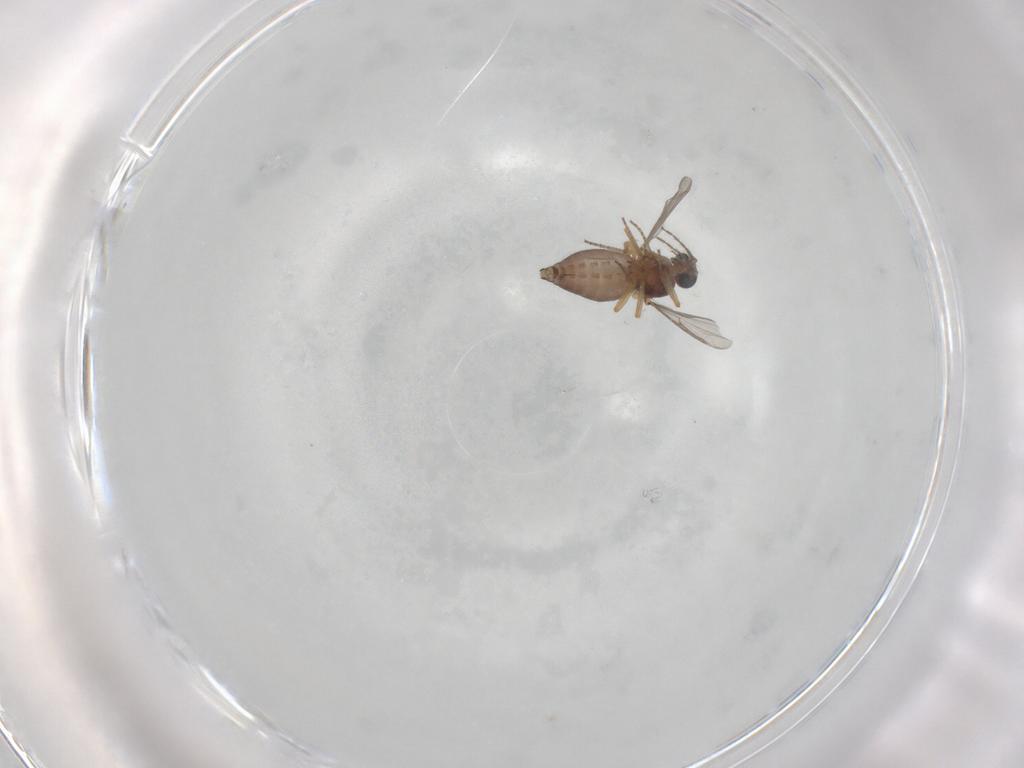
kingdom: Animalia
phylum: Arthropoda
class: Insecta
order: Diptera
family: Ceratopogonidae
